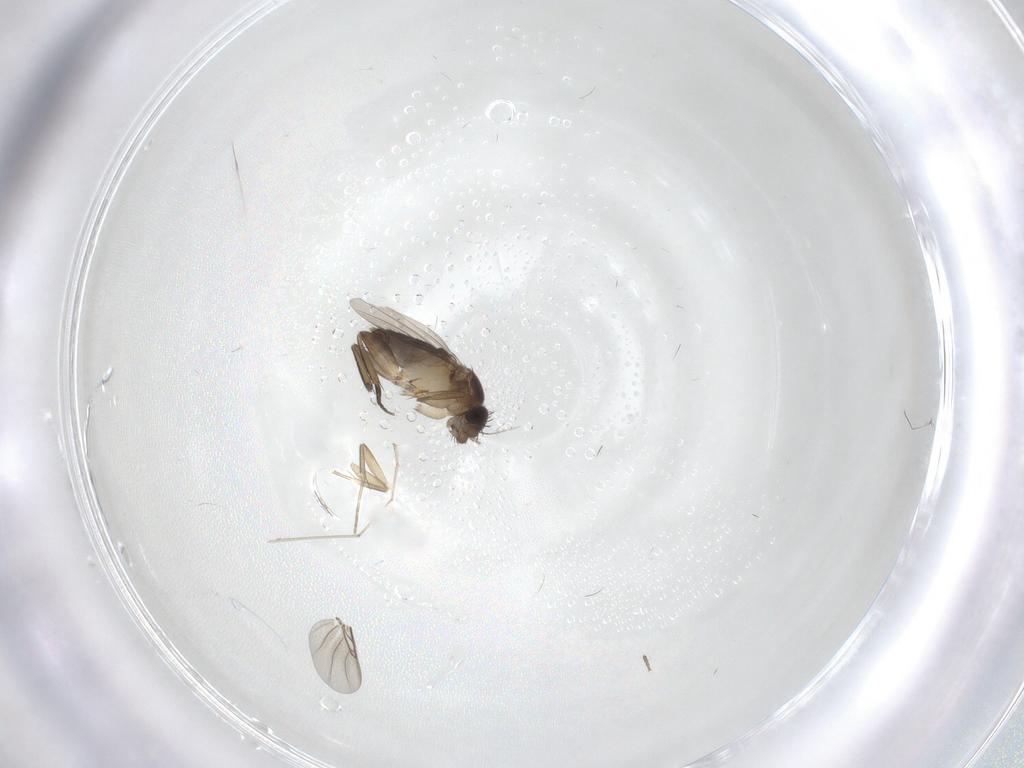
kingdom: Animalia
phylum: Arthropoda
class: Insecta
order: Diptera
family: Phoridae
